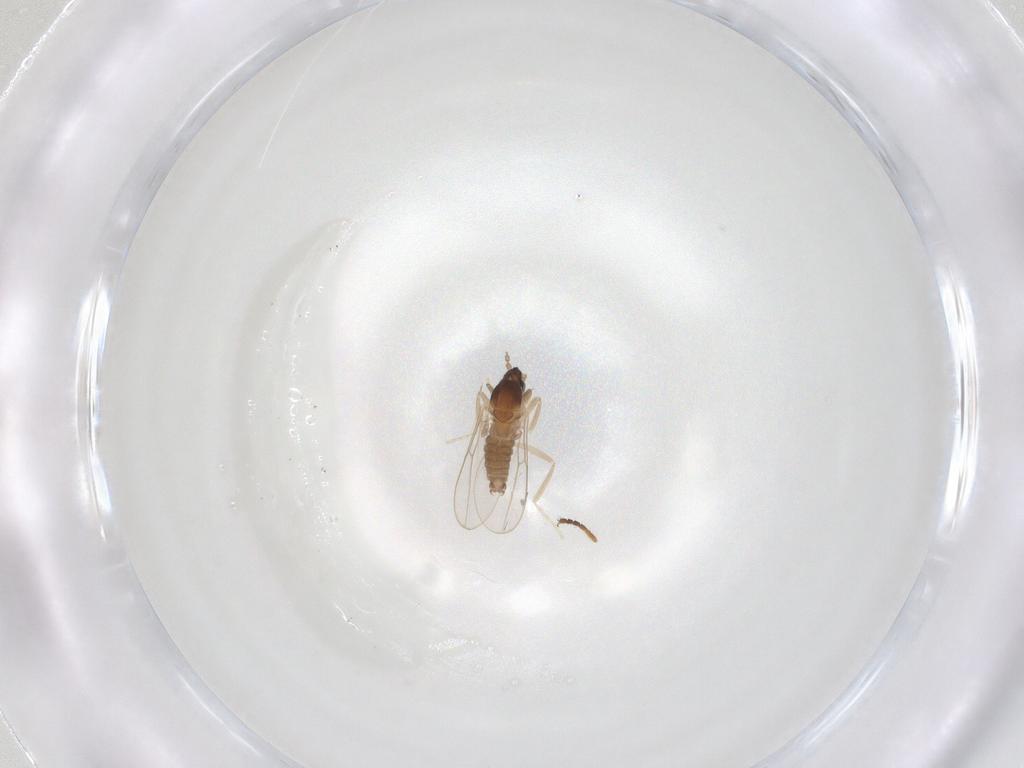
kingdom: Animalia
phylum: Arthropoda
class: Insecta
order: Diptera
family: Cecidomyiidae
